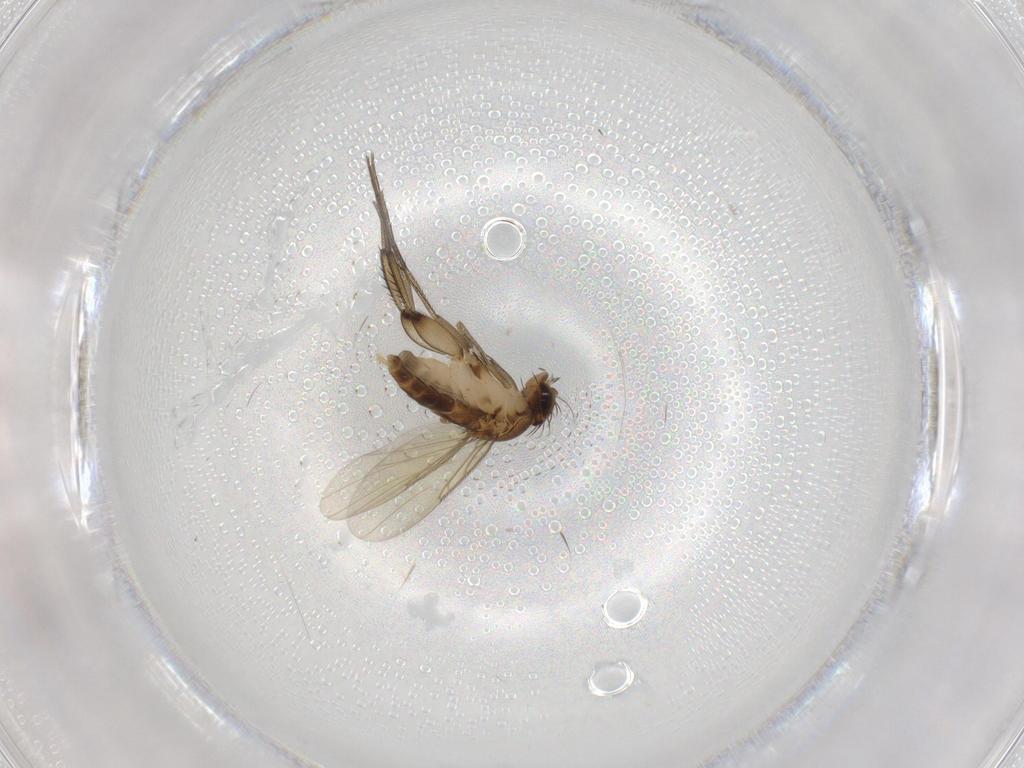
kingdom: Animalia
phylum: Arthropoda
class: Insecta
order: Diptera
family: Phoridae
